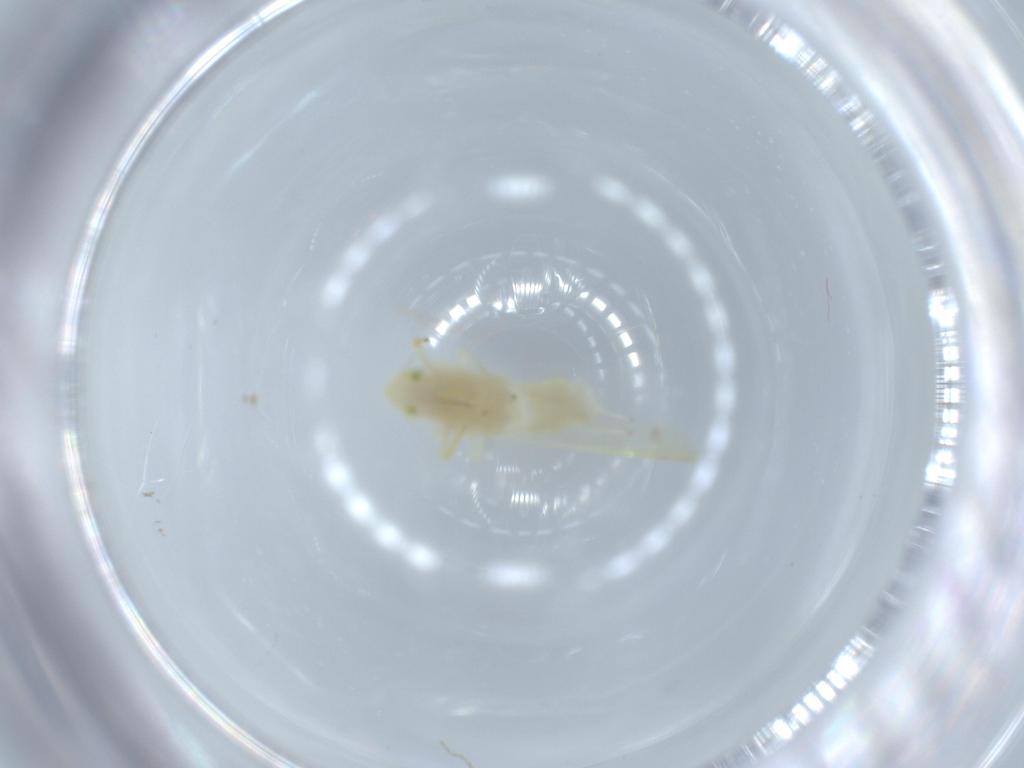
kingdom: Animalia
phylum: Arthropoda
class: Insecta
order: Hemiptera
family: Cicadellidae
